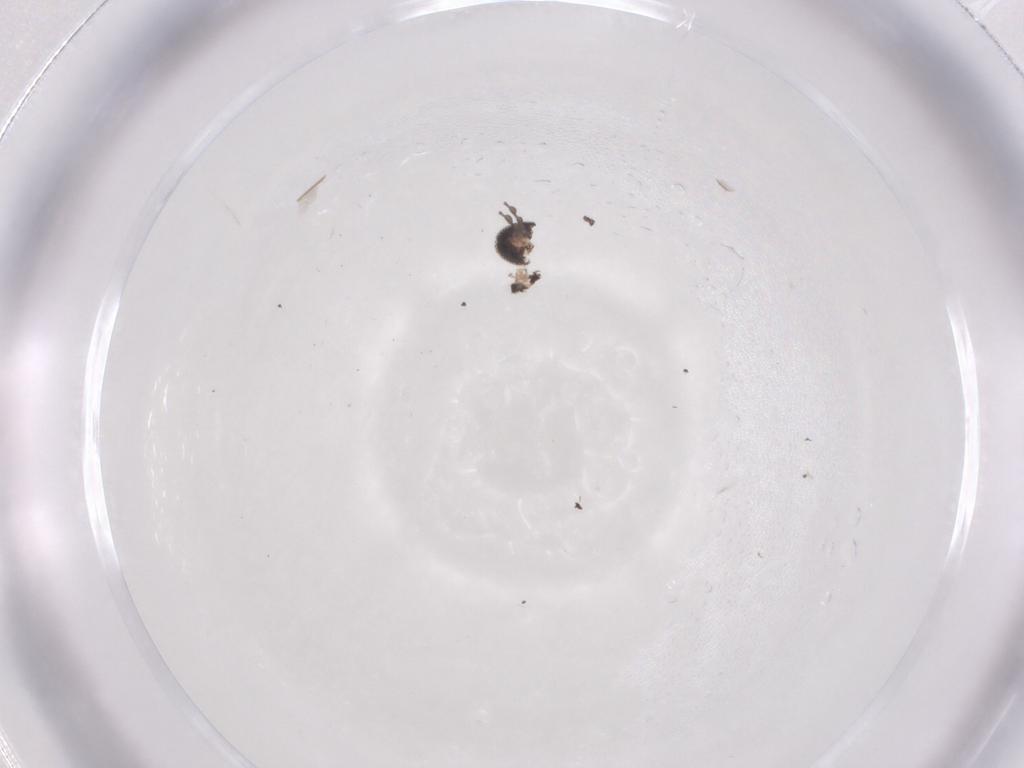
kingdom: Animalia
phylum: Arthropoda
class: Insecta
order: Diptera
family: Cecidomyiidae
